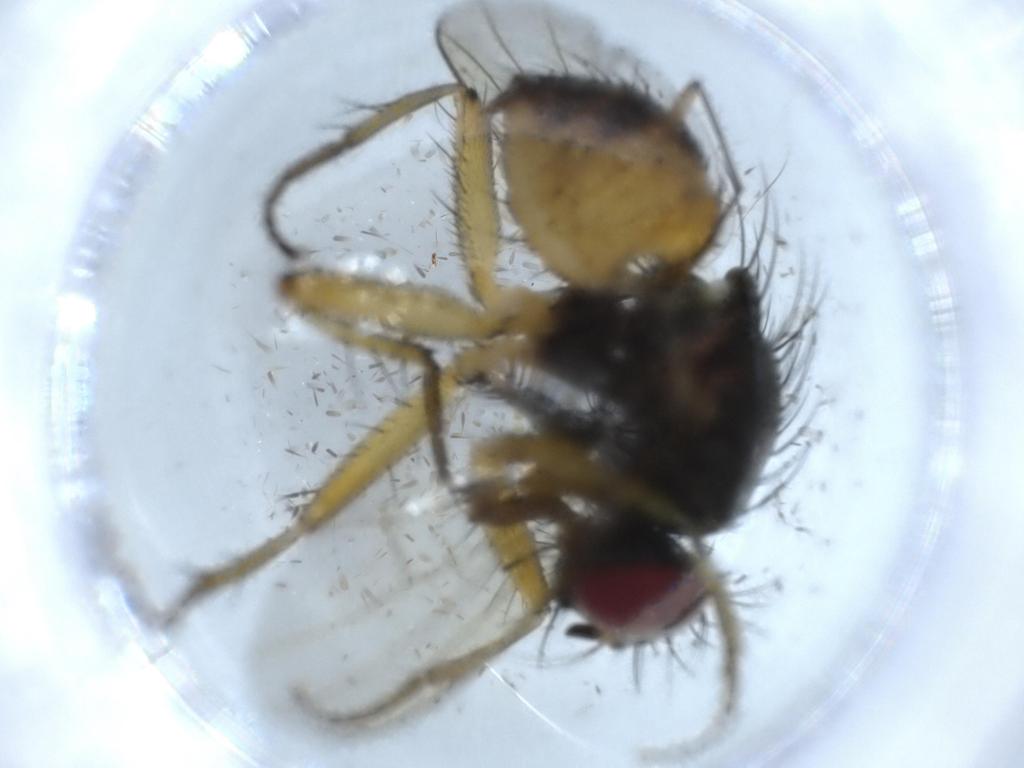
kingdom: Animalia
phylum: Arthropoda
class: Insecta
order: Diptera
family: Muscidae
